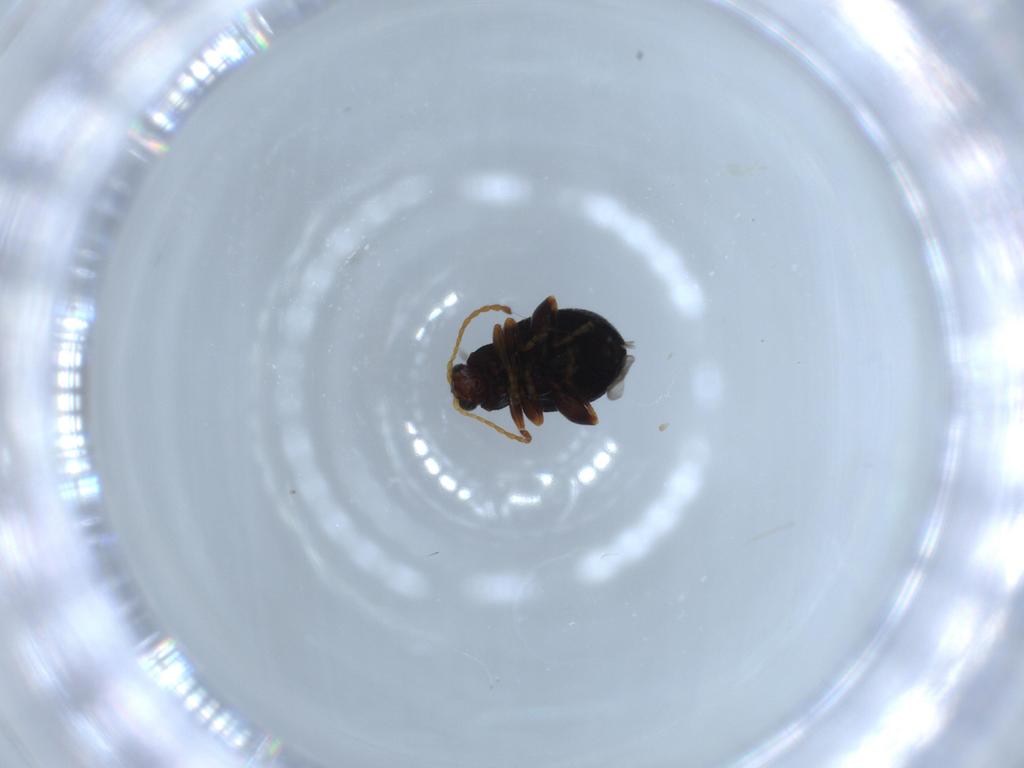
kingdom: Animalia
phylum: Arthropoda
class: Insecta
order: Coleoptera
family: Chrysomelidae
